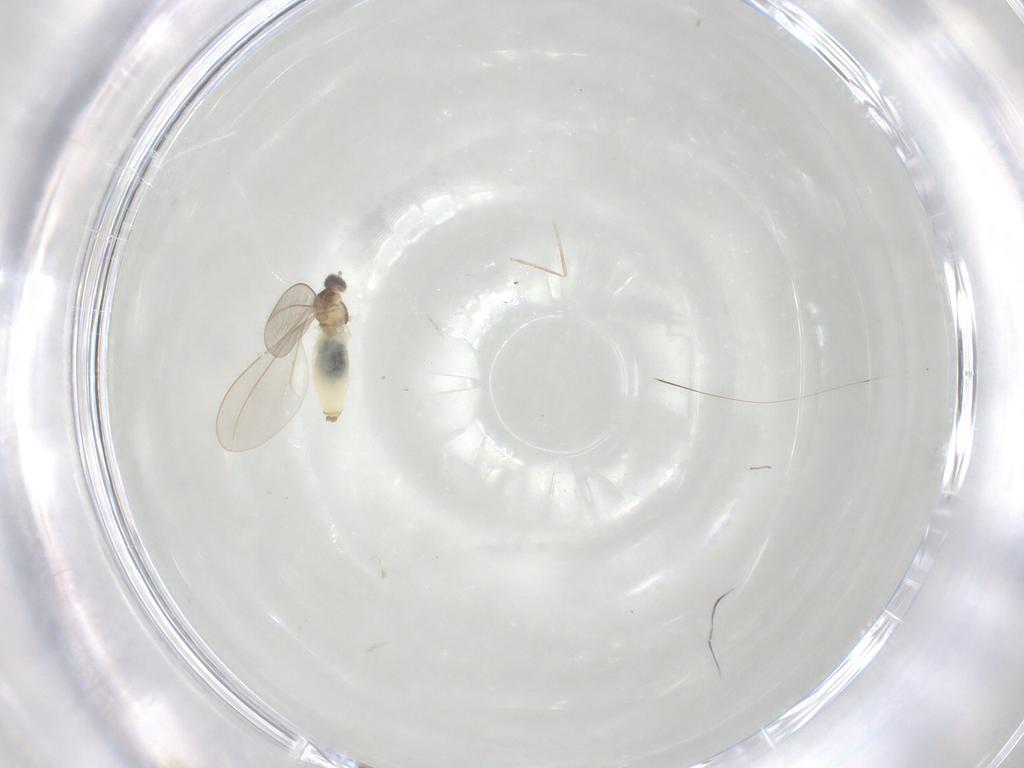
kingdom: Animalia
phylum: Arthropoda
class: Insecta
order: Diptera
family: Cecidomyiidae
